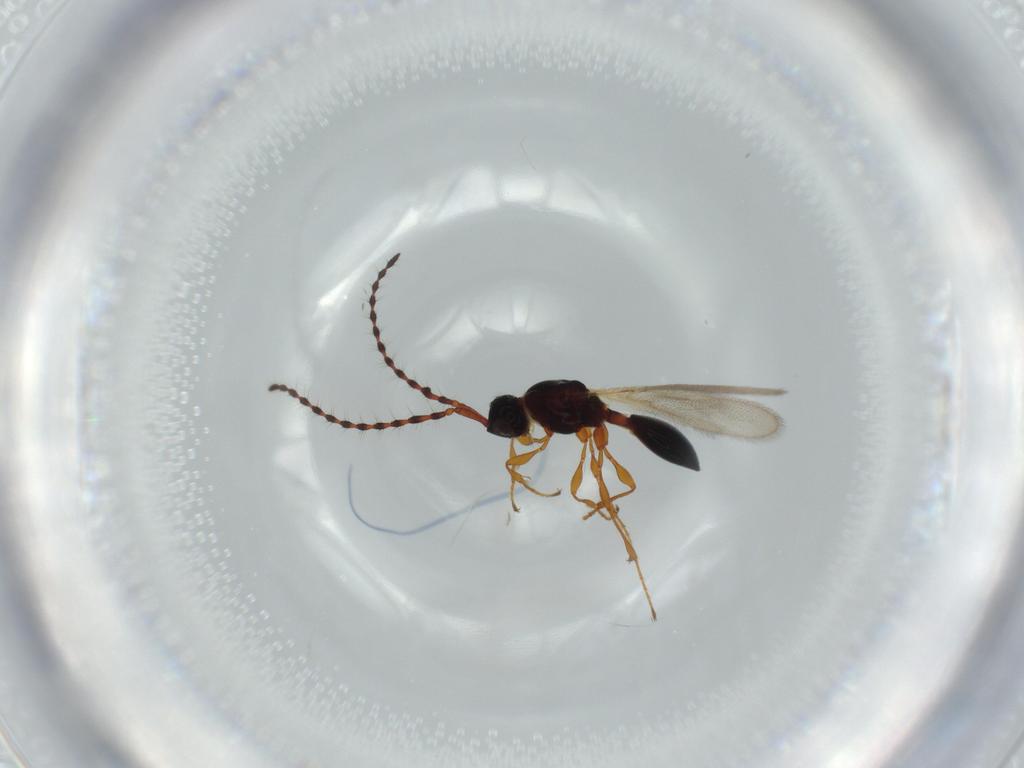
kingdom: Animalia
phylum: Arthropoda
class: Insecta
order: Hymenoptera
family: Diapriidae
